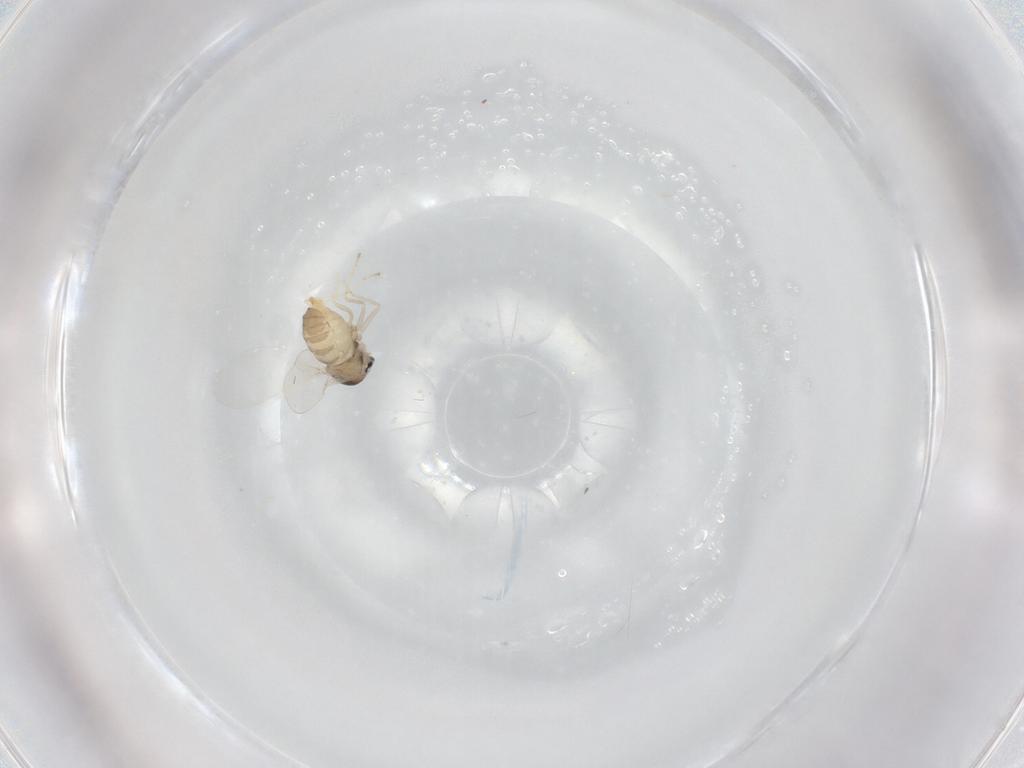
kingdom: Animalia
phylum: Arthropoda
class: Insecta
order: Diptera
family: Cecidomyiidae
